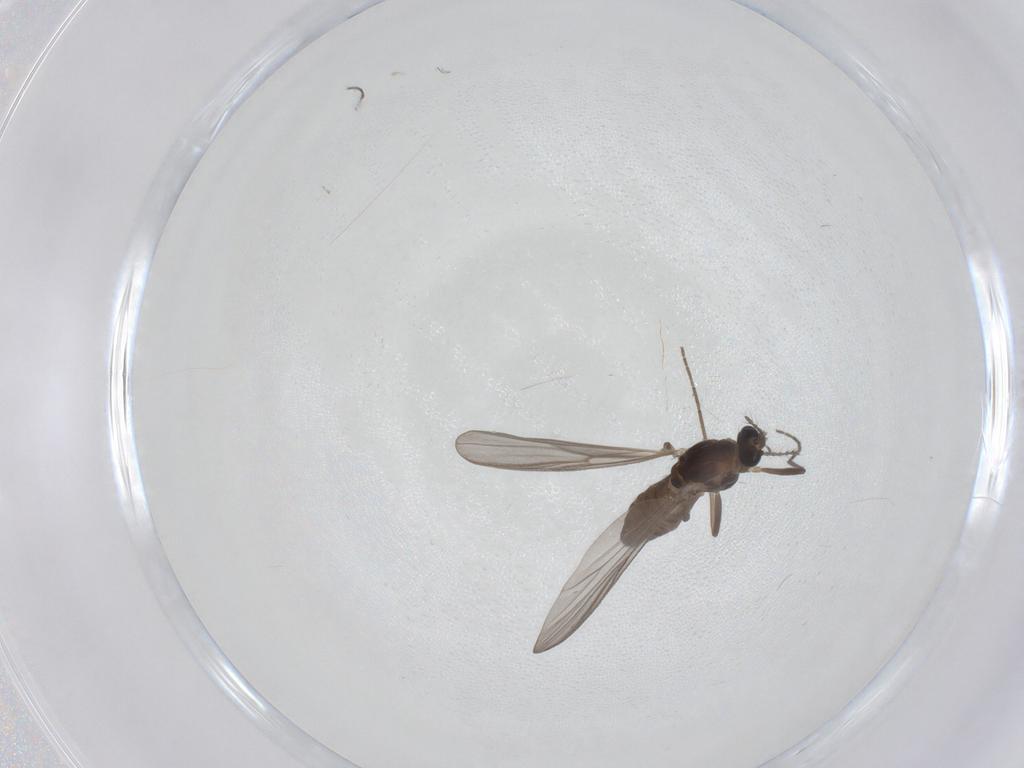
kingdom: Animalia
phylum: Arthropoda
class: Insecta
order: Diptera
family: Chironomidae
